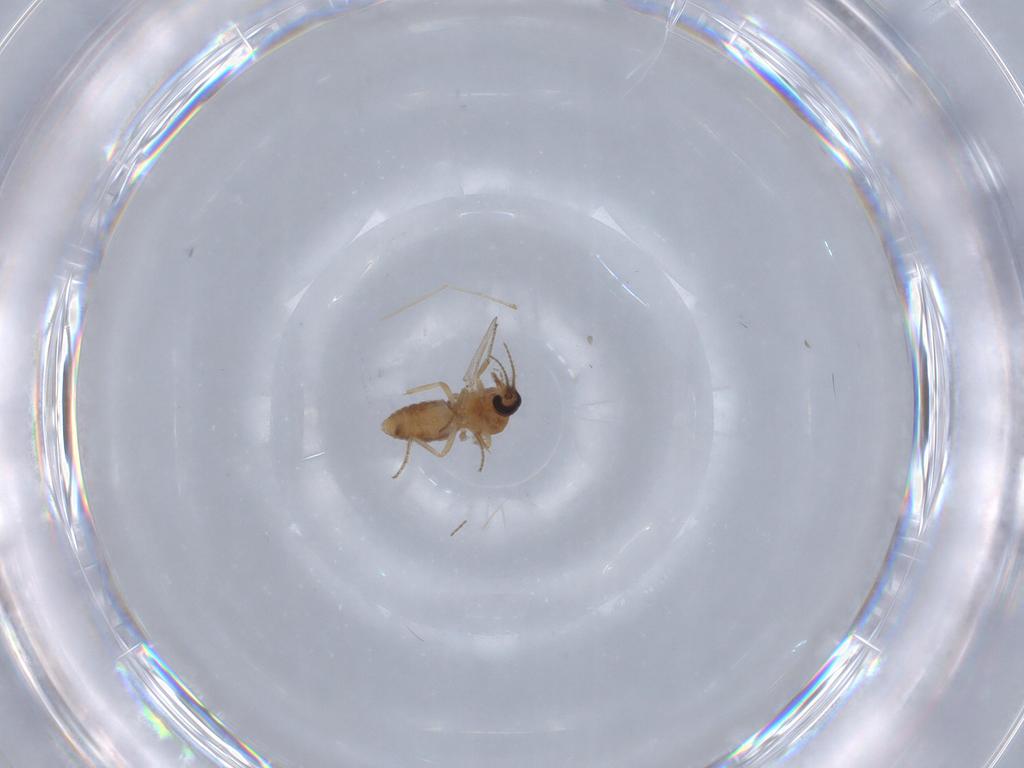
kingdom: Animalia
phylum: Arthropoda
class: Insecta
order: Diptera
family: Ceratopogonidae
